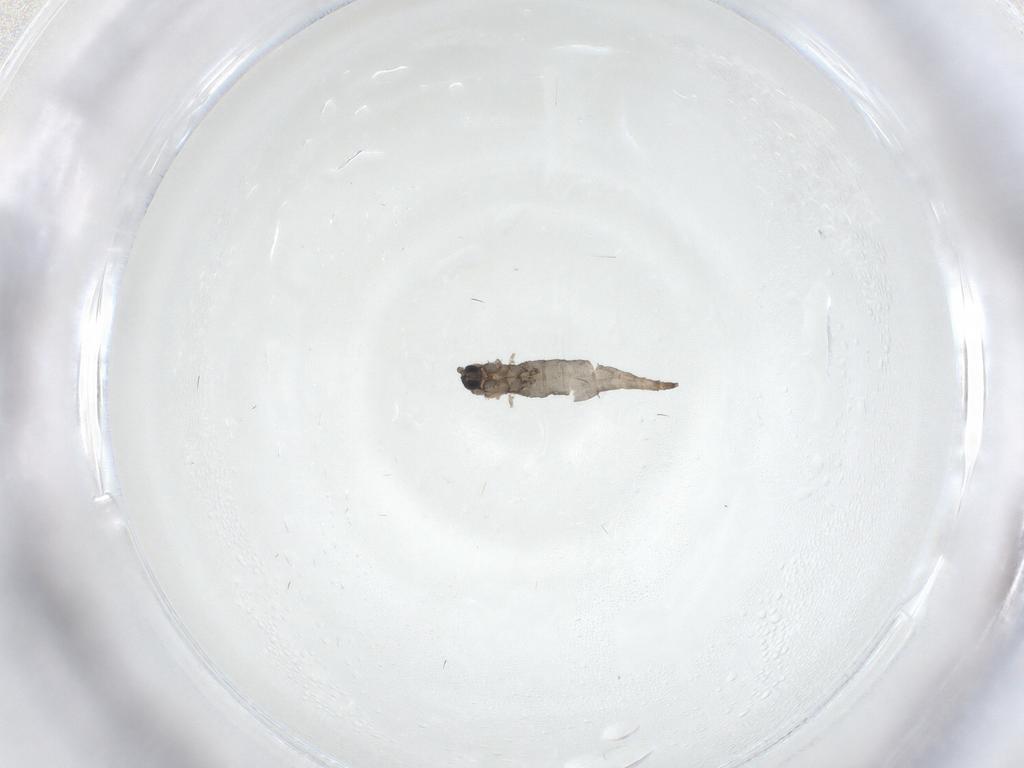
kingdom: Animalia
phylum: Arthropoda
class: Insecta
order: Diptera
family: Sciaridae
